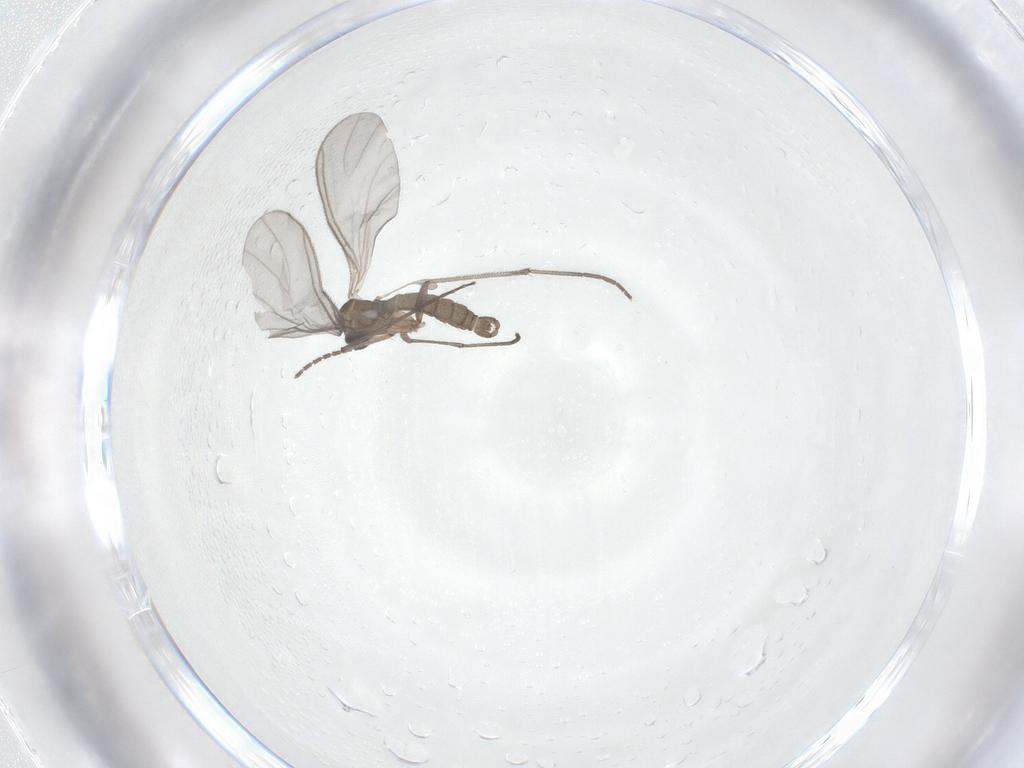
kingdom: Animalia
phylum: Arthropoda
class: Insecta
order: Diptera
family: Sciaridae
